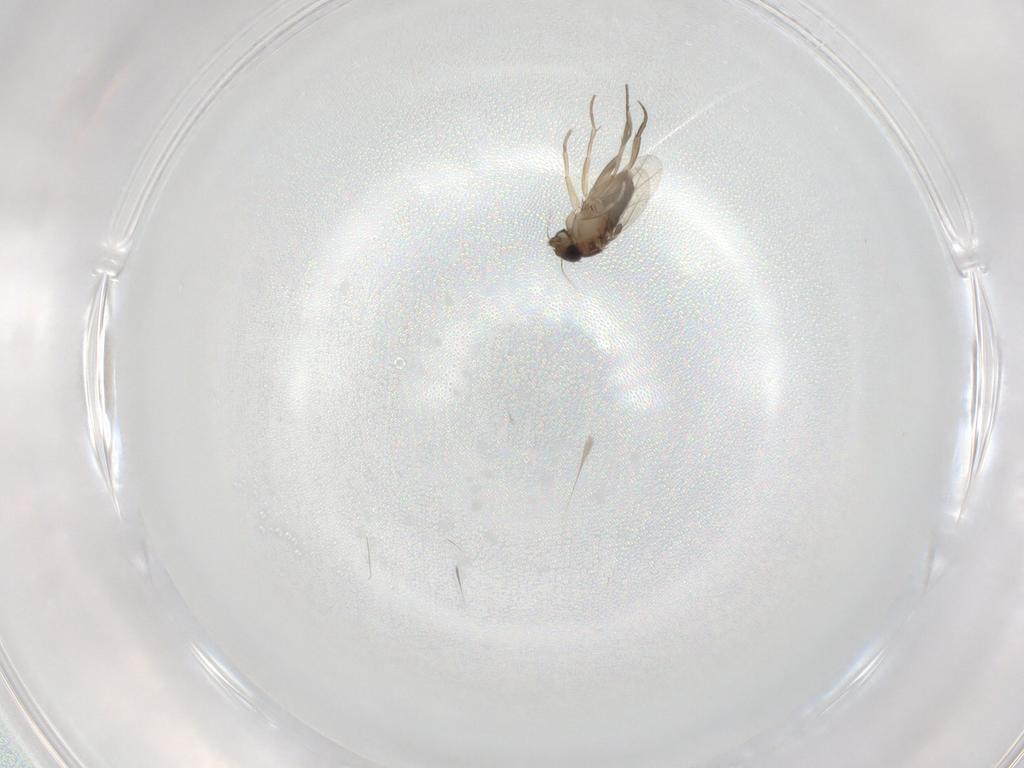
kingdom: Animalia
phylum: Arthropoda
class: Insecta
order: Diptera
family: Phoridae
